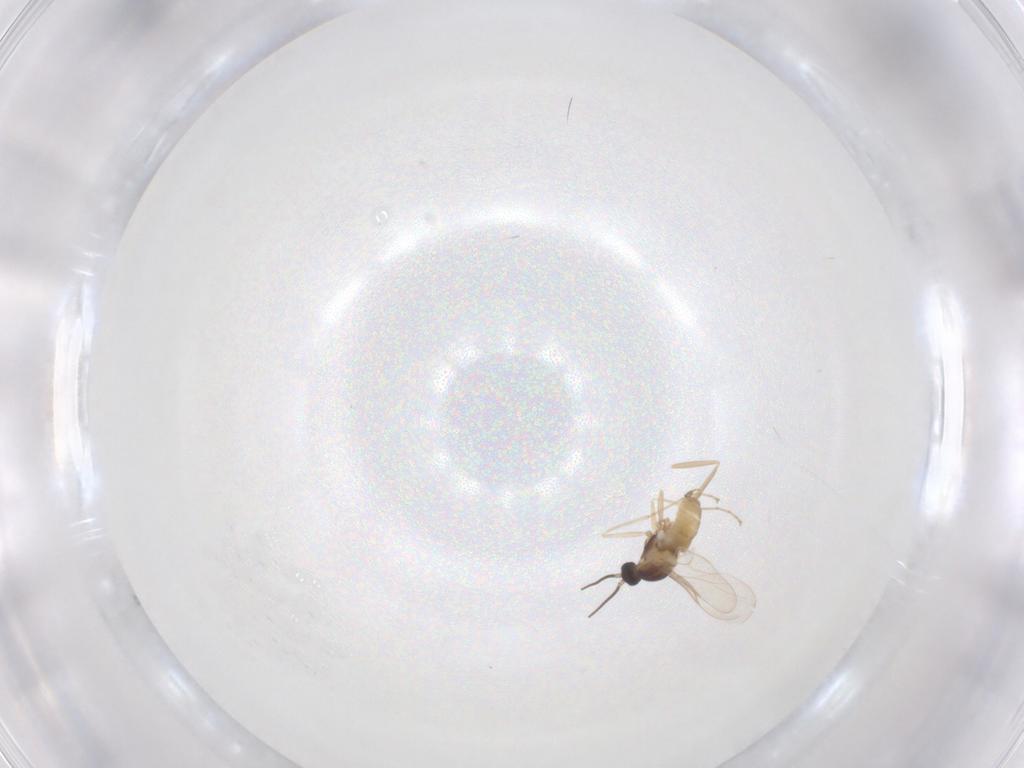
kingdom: Animalia
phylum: Arthropoda
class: Insecta
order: Diptera
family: Cecidomyiidae
